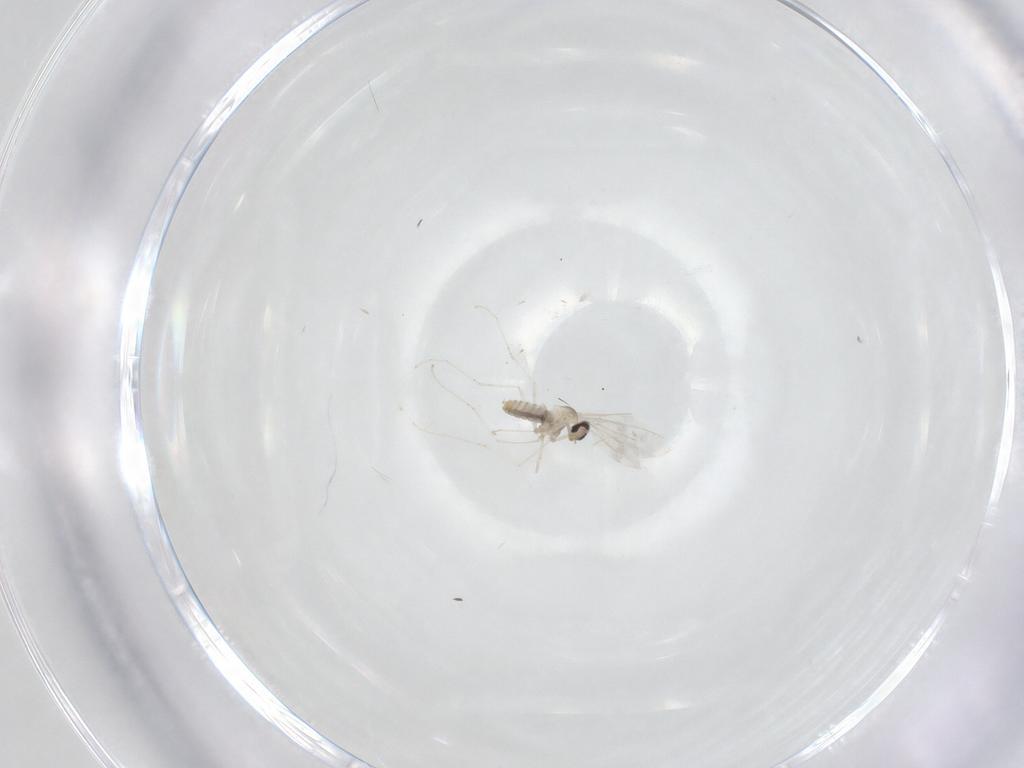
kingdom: Animalia
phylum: Arthropoda
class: Insecta
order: Diptera
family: Cecidomyiidae
